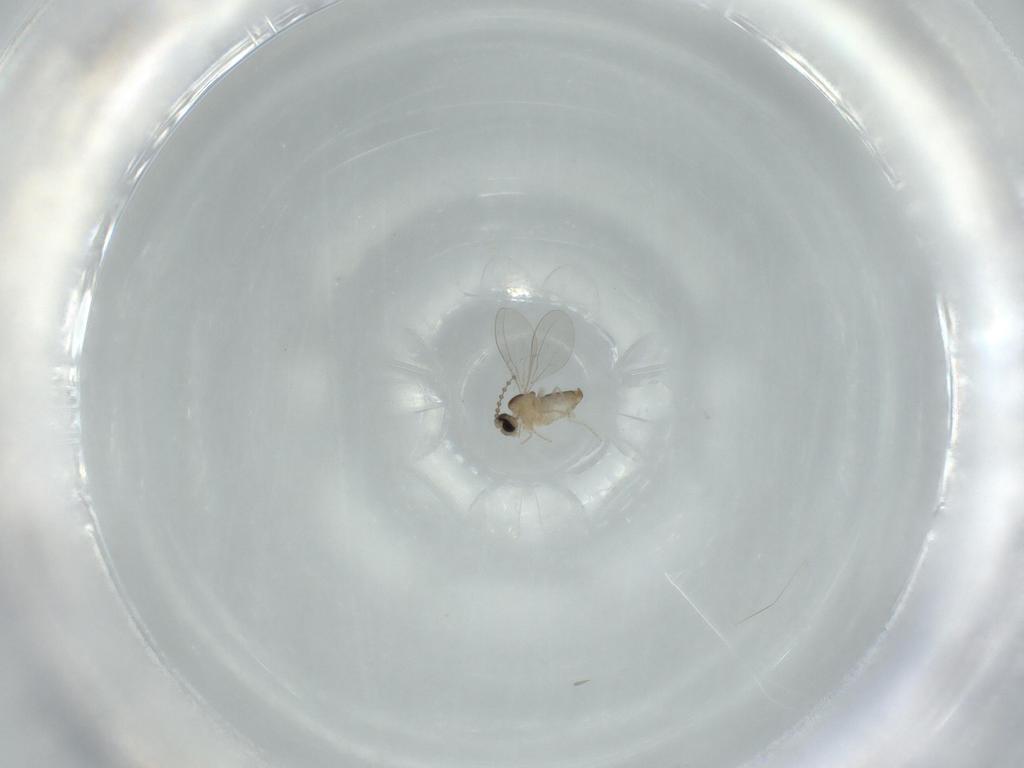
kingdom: Animalia
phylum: Arthropoda
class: Insecta
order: Diptera
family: Cecidomyiidae
